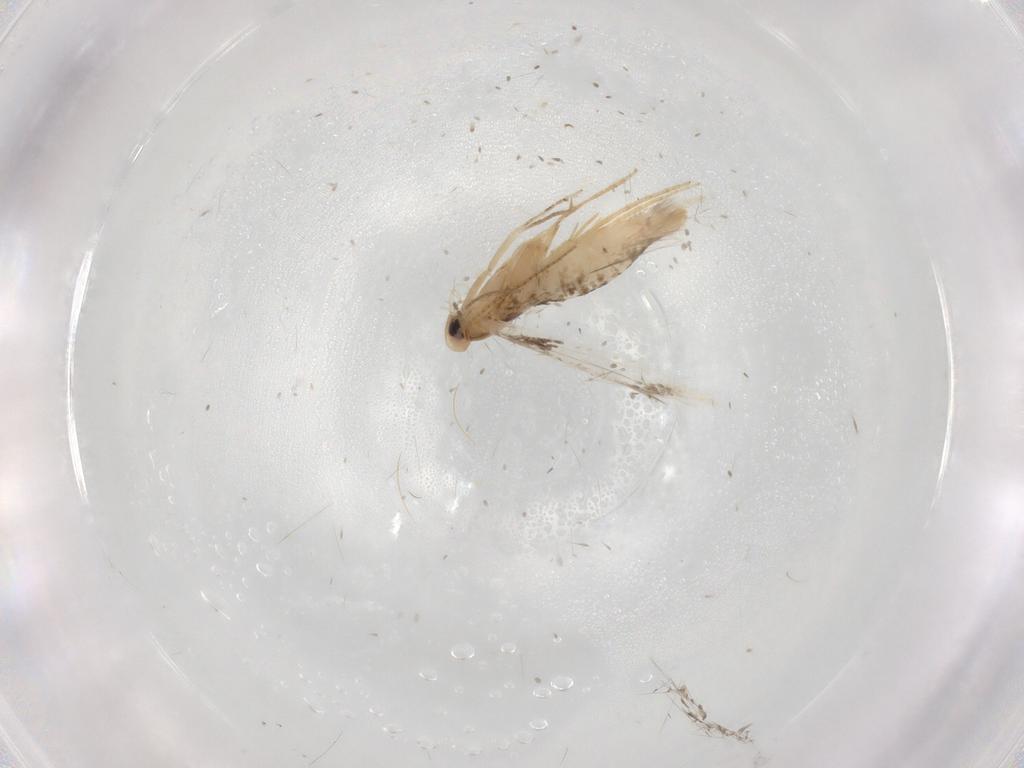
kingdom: Animalia
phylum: Arthropoda
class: Insecta
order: Lepidoptera
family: Gracillariidae
